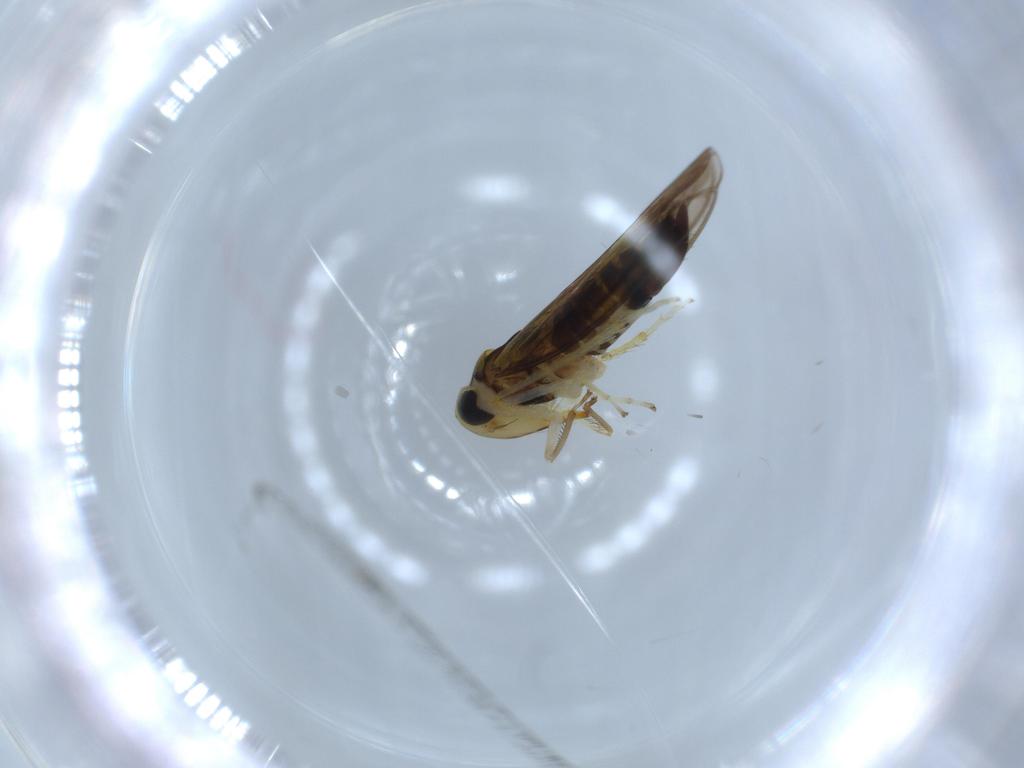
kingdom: Animalia
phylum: Arthropoda
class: Insecta
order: Hemiptera
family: Cicadellidae
